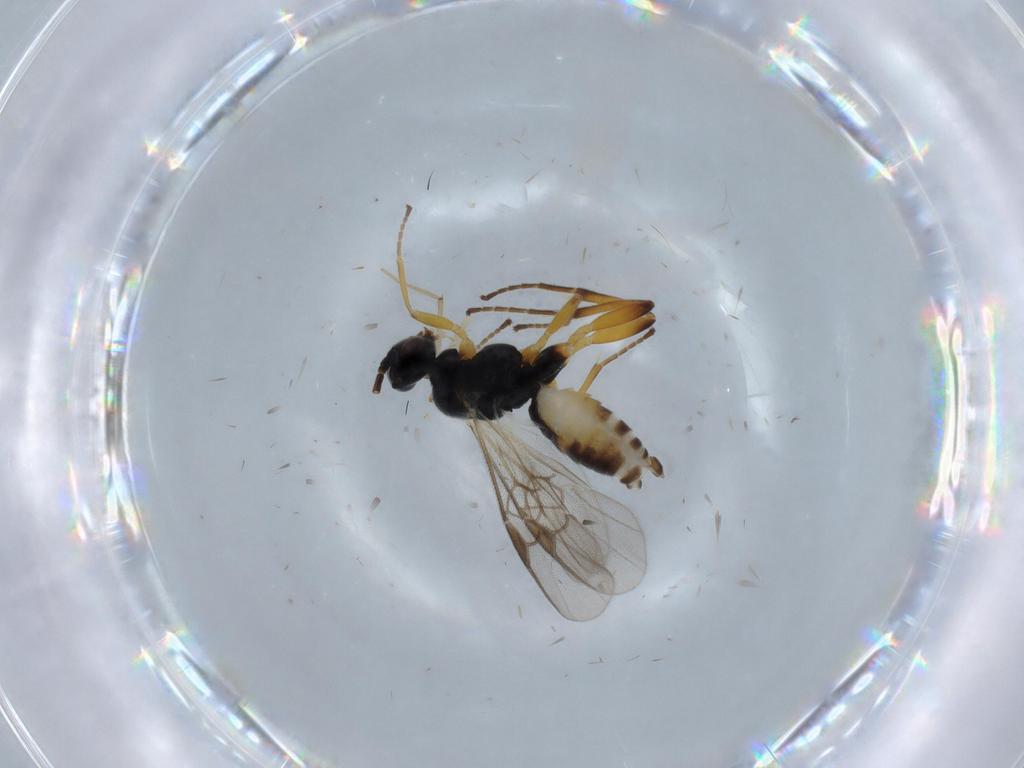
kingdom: Animalia
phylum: Arthropoda
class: Insecta
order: Hymenoptera
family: Braconidae
